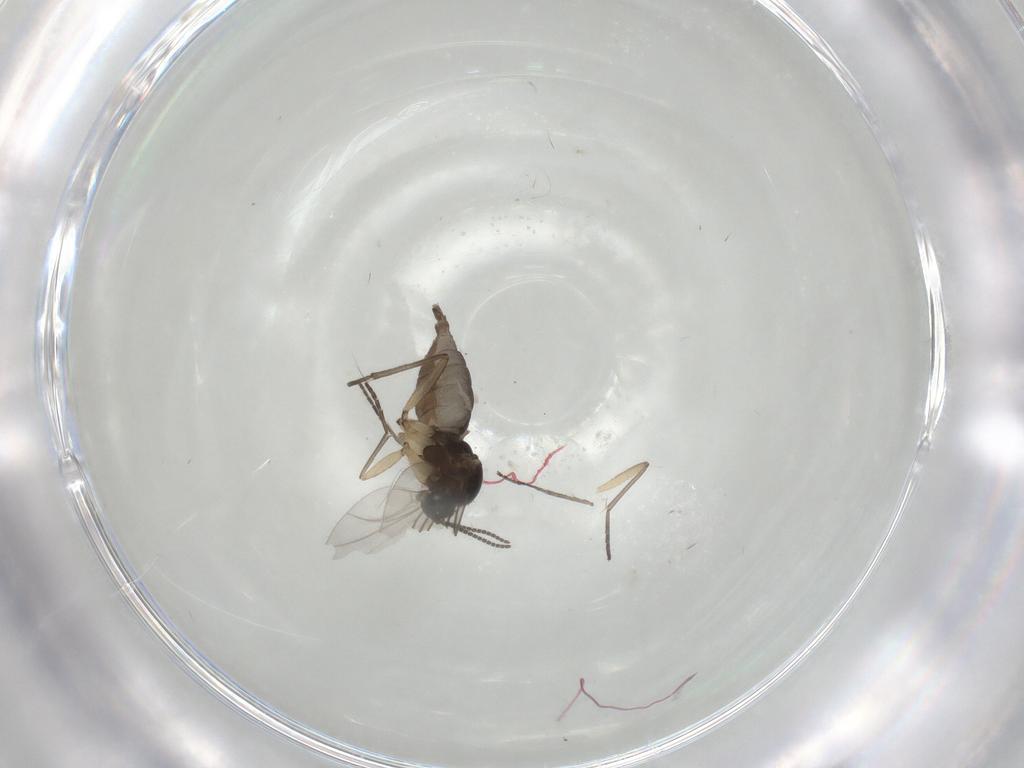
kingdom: Animalia
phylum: Arthropoda
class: Insecta
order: Diptera
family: Sciaridae
